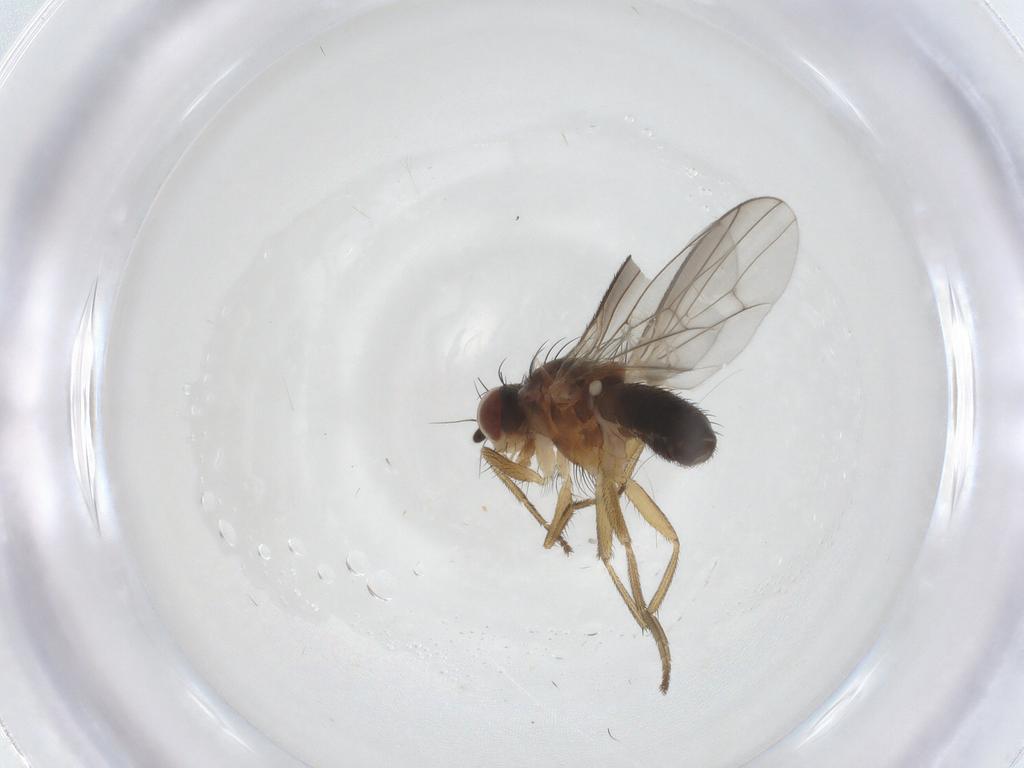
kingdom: Animalia
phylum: Arthropoda
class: Insecta
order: Diptera
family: Heleomyzidae
